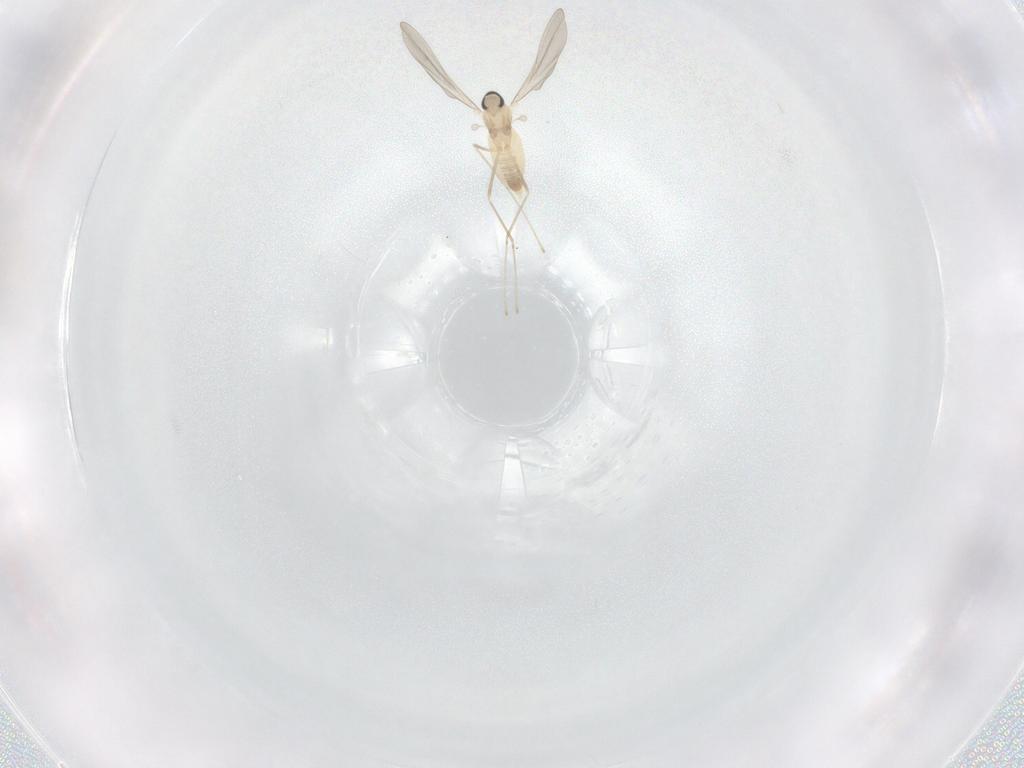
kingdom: Animalia
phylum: Arthropoda
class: Insecta
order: Diptera
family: Cecidomyiidae
